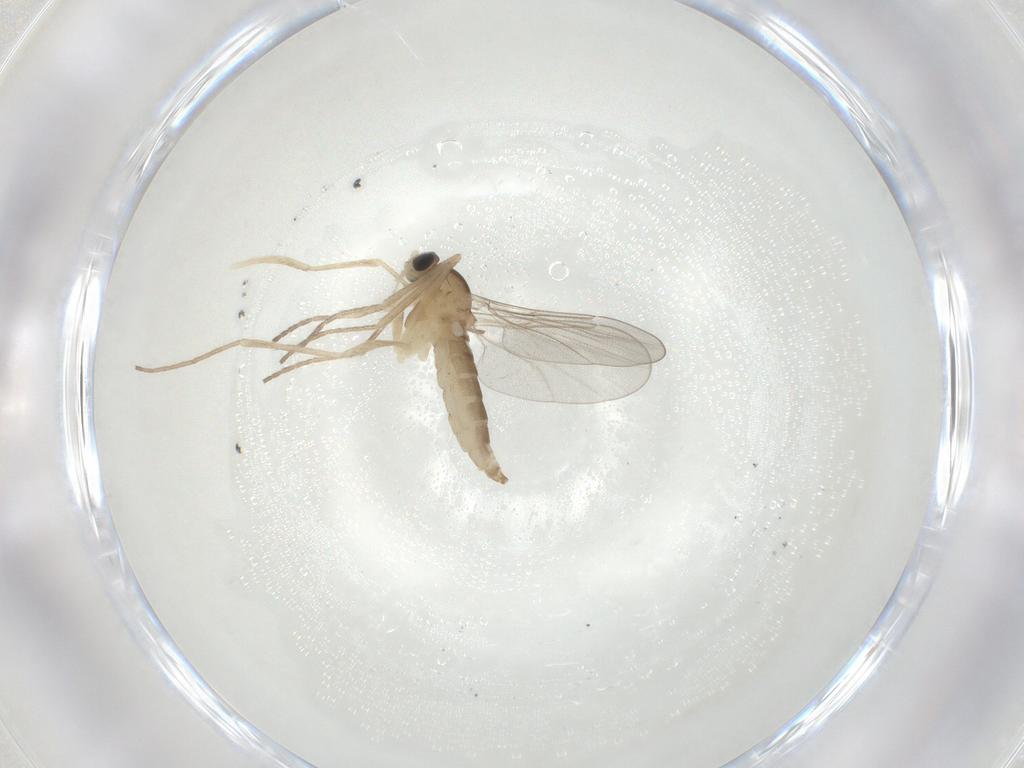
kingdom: Animalia
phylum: Arthropoda
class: Insecta
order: Diptera
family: Cecidomyiidae
